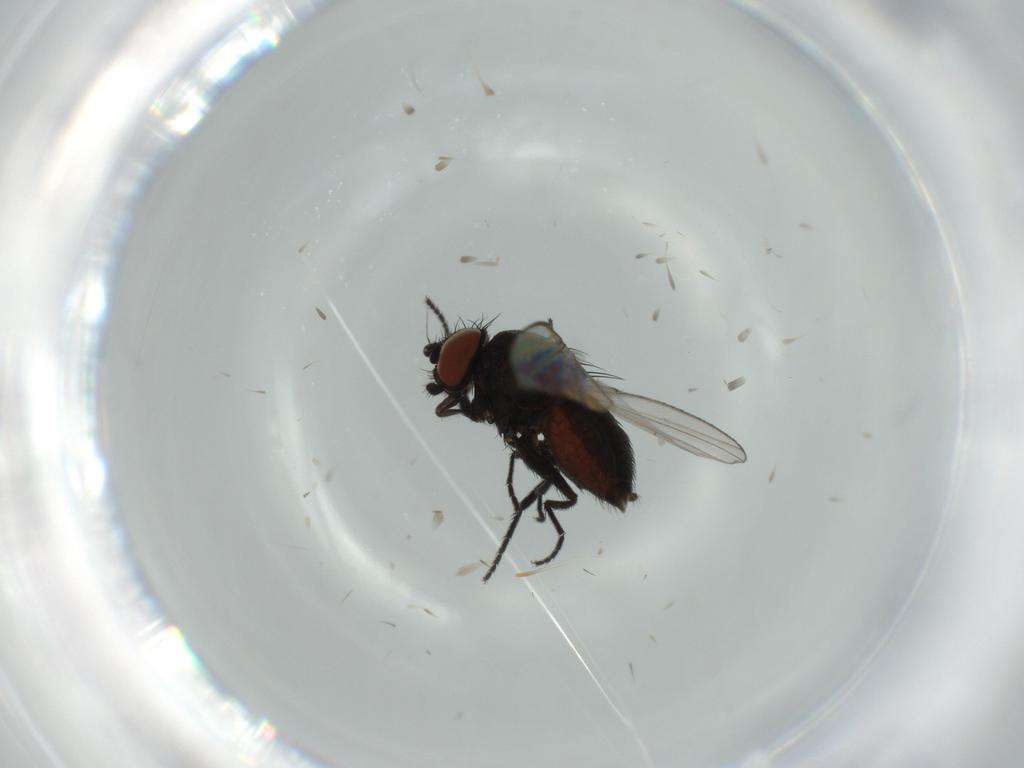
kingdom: Animalia
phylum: Arthropoda
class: Insecta
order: Diptera
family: Milichiidae
